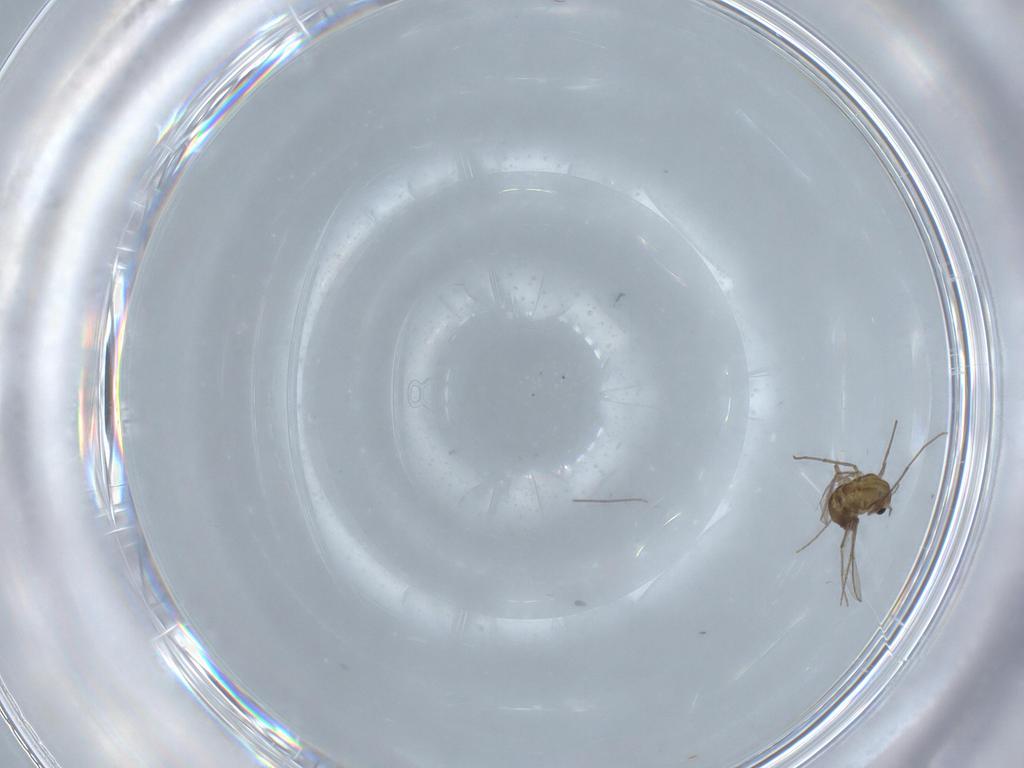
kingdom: Animalia
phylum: Arthropoda
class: Insecta
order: Diptera
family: Chironomidae
